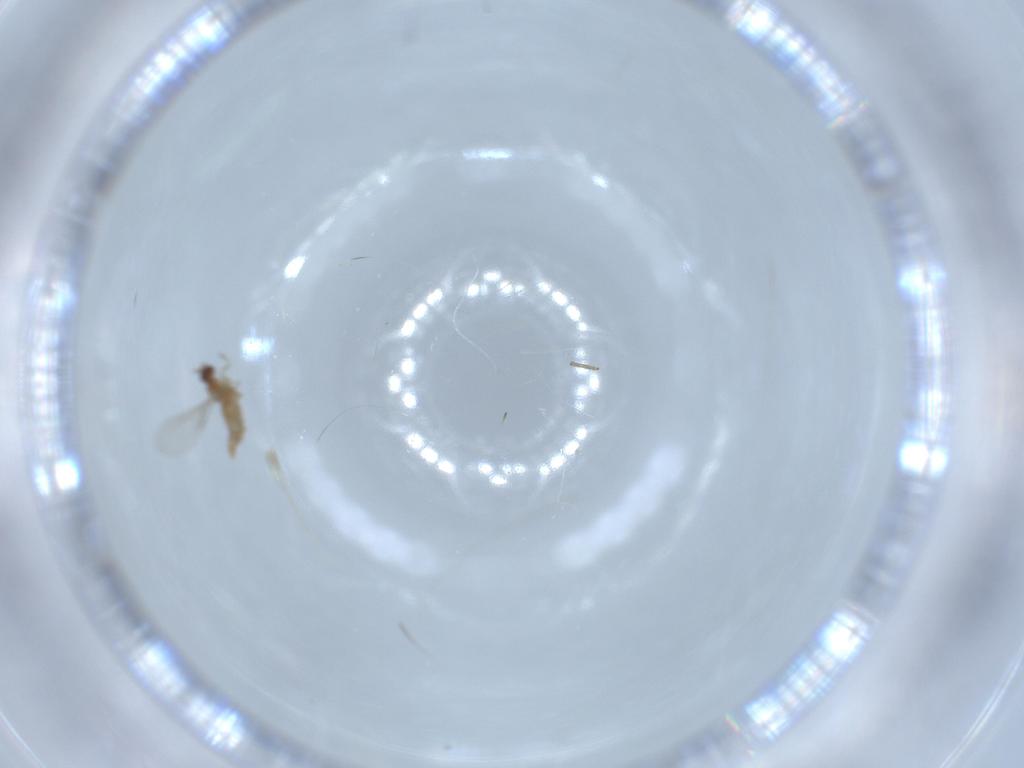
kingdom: Animalia
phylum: Arthropoda
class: Insecta
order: Diptera
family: Cecidomyiidae
